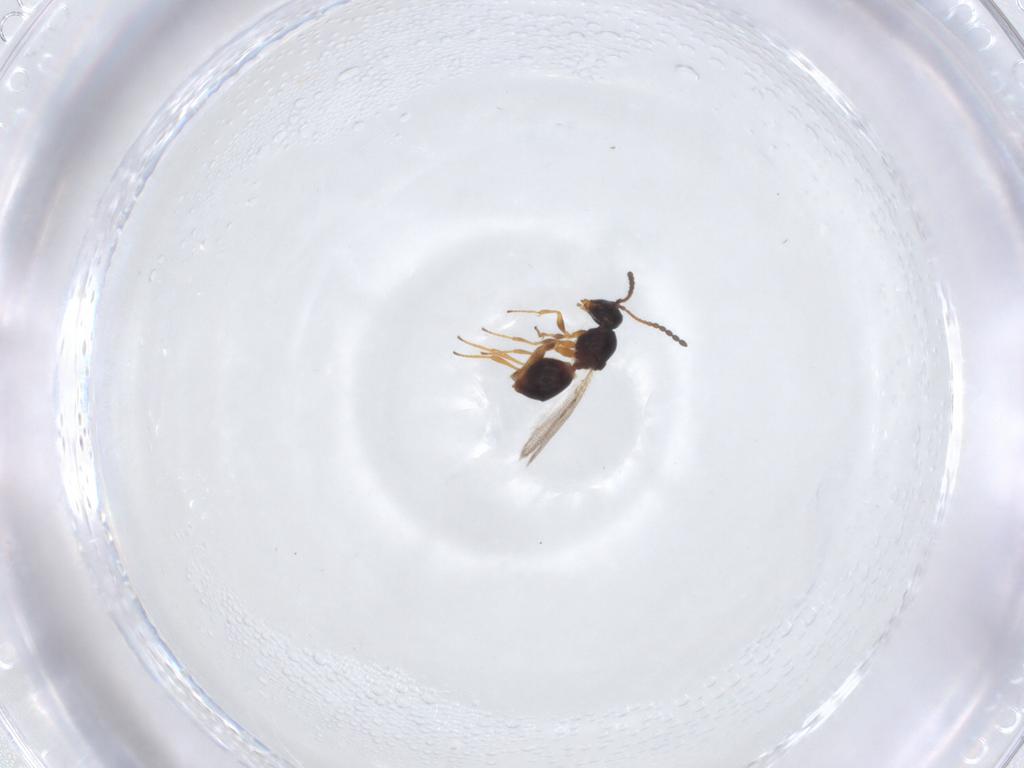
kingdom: Animalia
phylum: Arthropoda
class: Insecta
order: Hymenoptera
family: Figitidae
